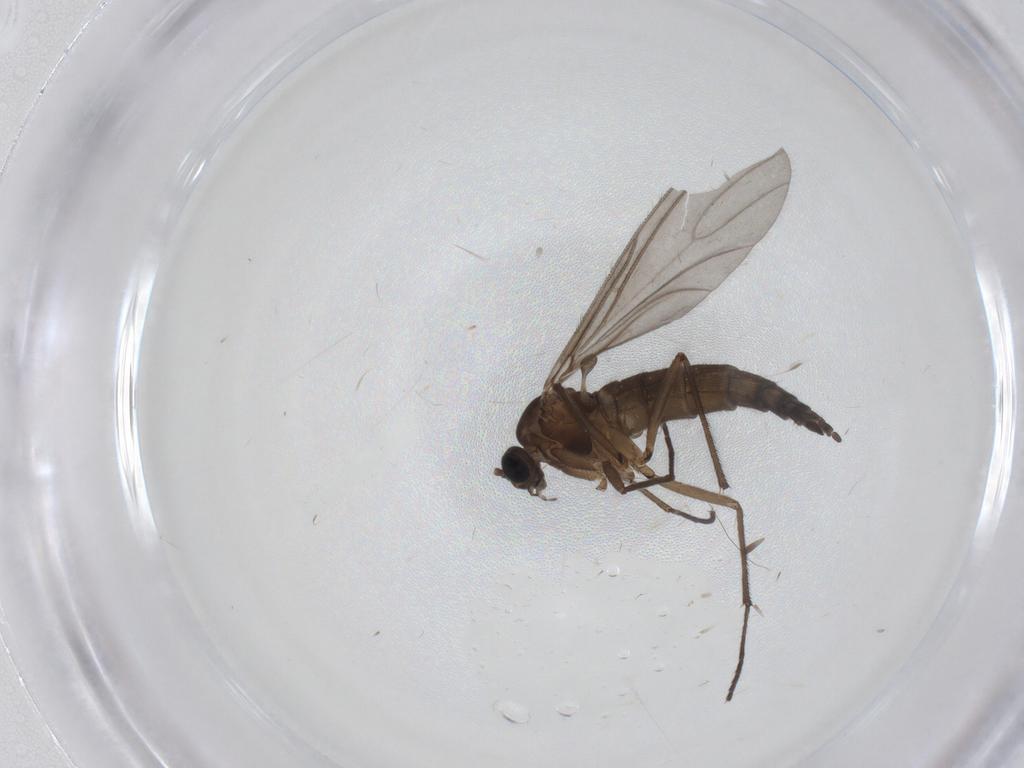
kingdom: Animalia
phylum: Arthropoda
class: Insecta
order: Diptera
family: Sciaridae
